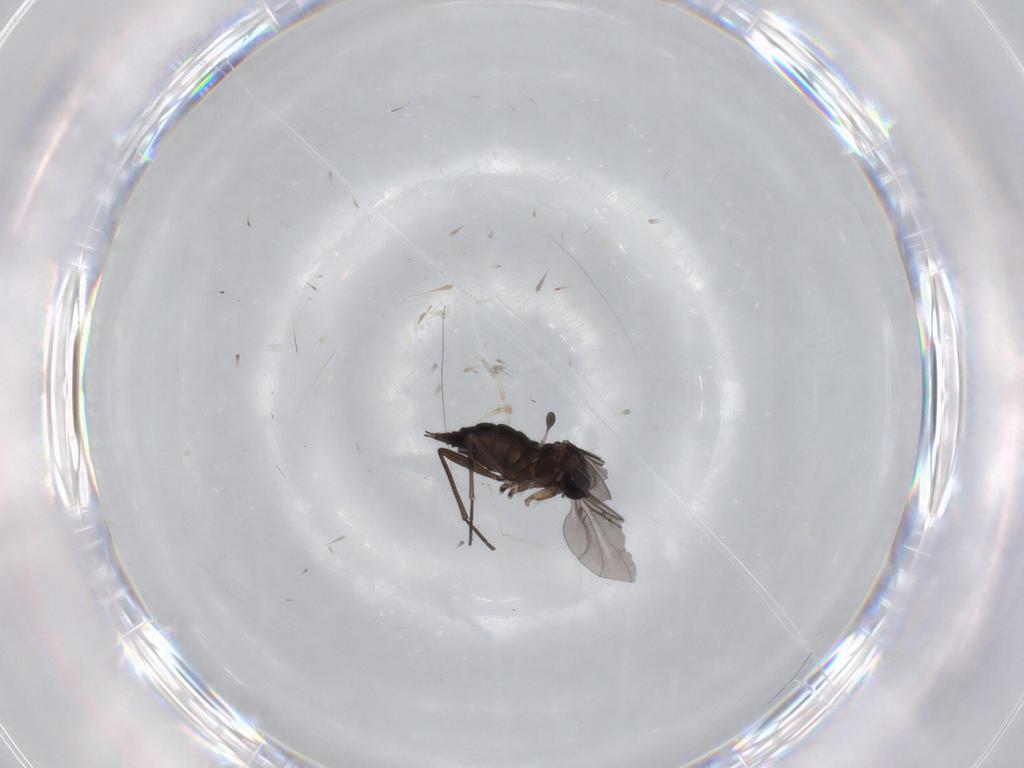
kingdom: Animalia
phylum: Arthropoda
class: Insecta
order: Diptera
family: Sciaridae
